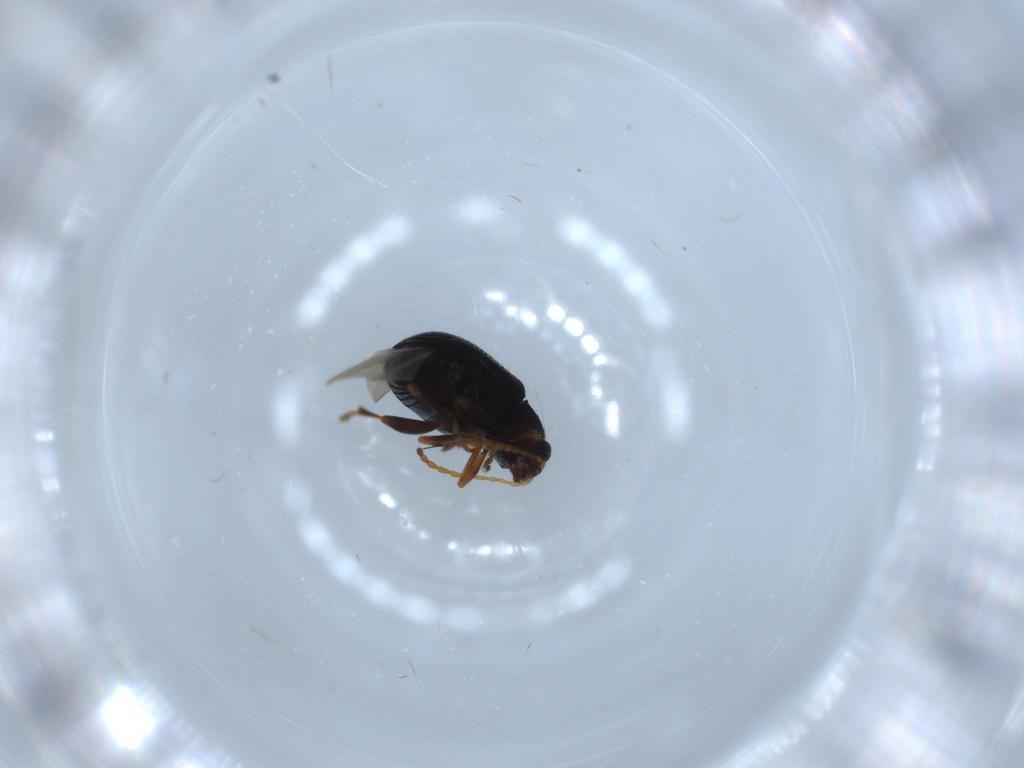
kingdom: Animalia
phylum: Arthropoda
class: Insecta
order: Coleoptera
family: Chrysomelidae
